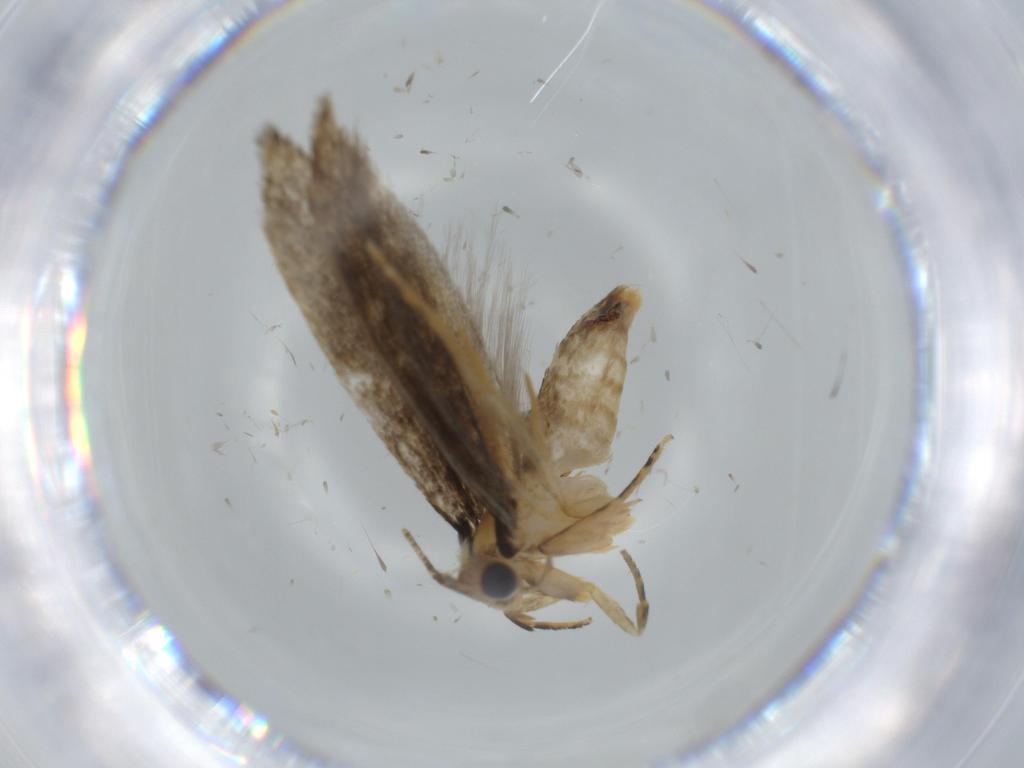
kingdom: Animalia
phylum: Arthropoda
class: Insecta
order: Lepidoptera
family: Tineidae
